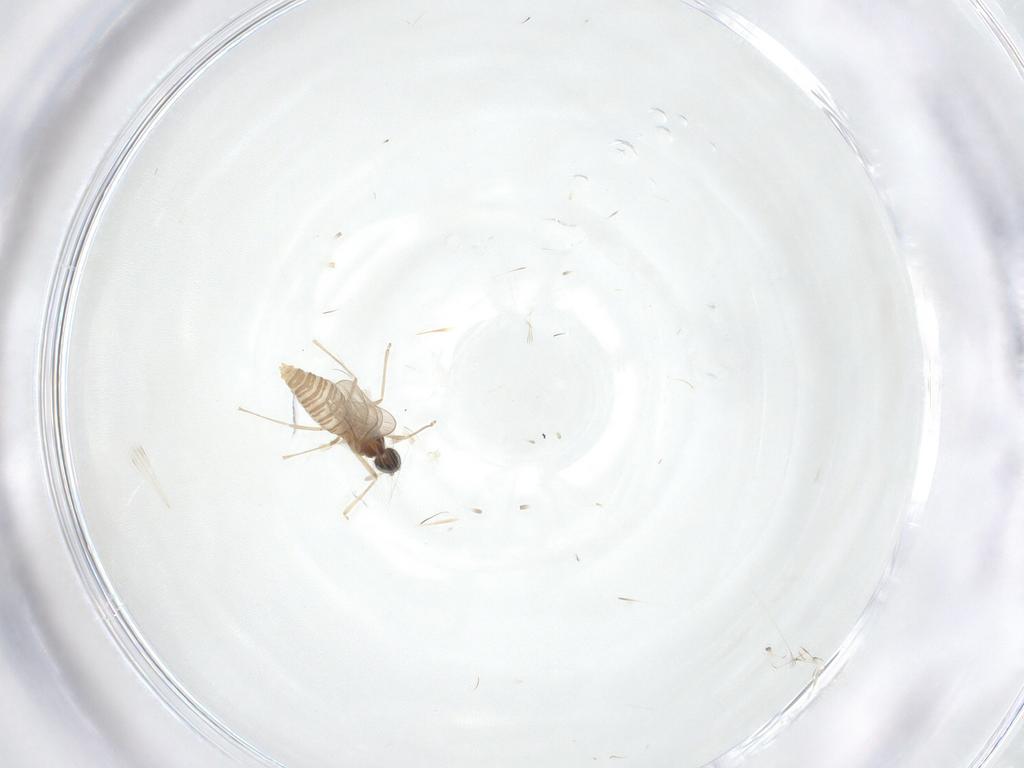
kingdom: Animalia
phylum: Arthropoda
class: Insecta
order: Diptera
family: Cecidomyiidae
